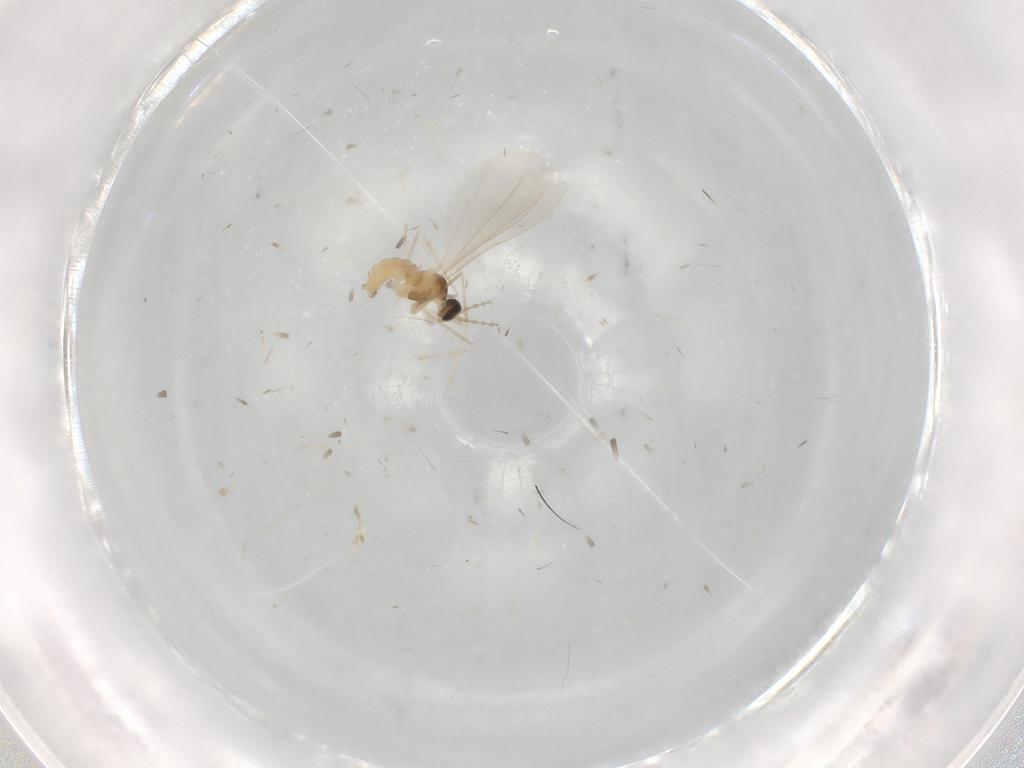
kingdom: Animalia
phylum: Arthropoda
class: Insecta
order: Diptera
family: Cecidomyiidae
